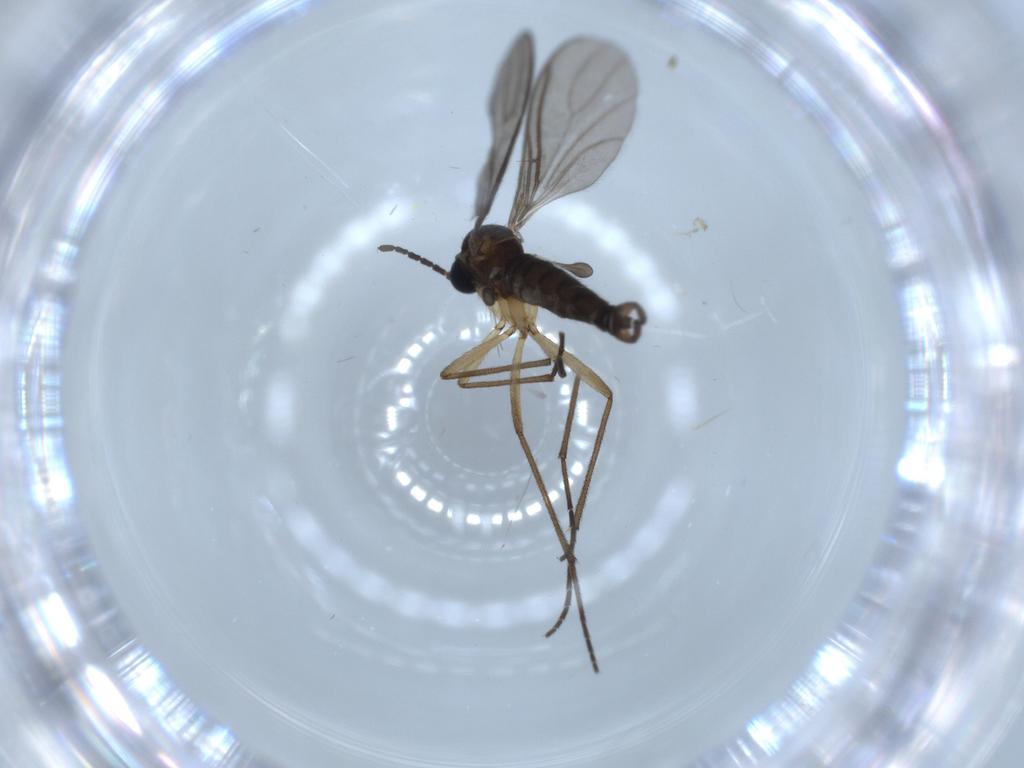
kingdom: Animalia
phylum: Arthropoda
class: Insecta
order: Diptera
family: Sciaridae
